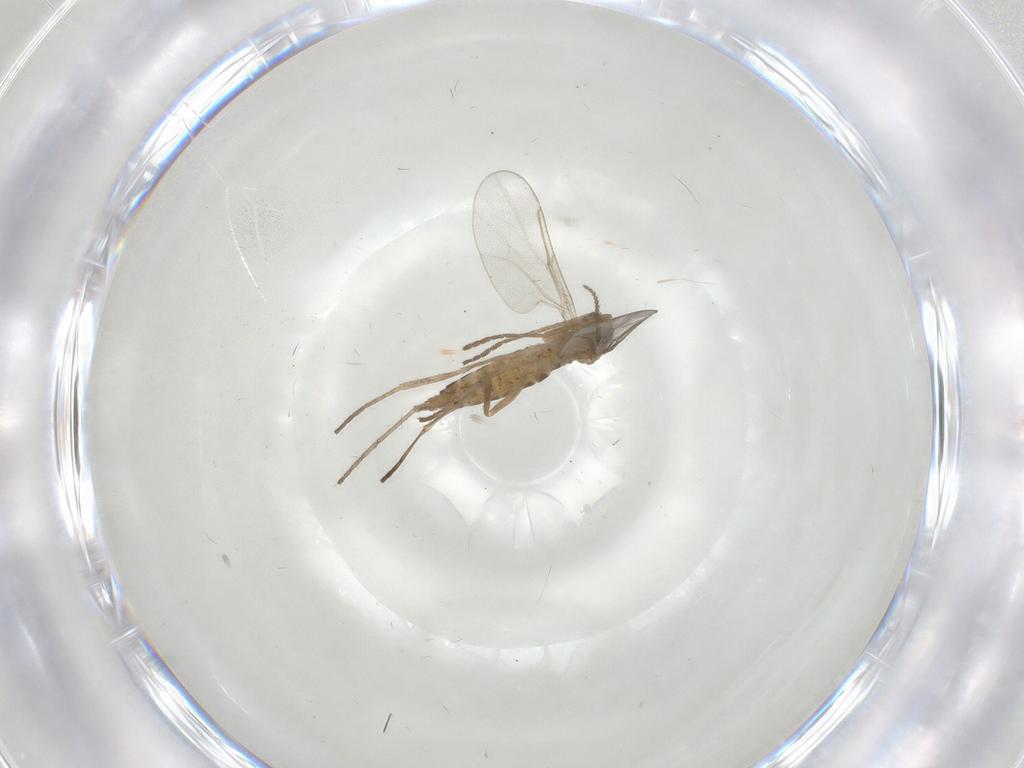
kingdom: Animalia
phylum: Arthropoda
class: Insecta
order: Diptera
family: Cecidomyiidae
